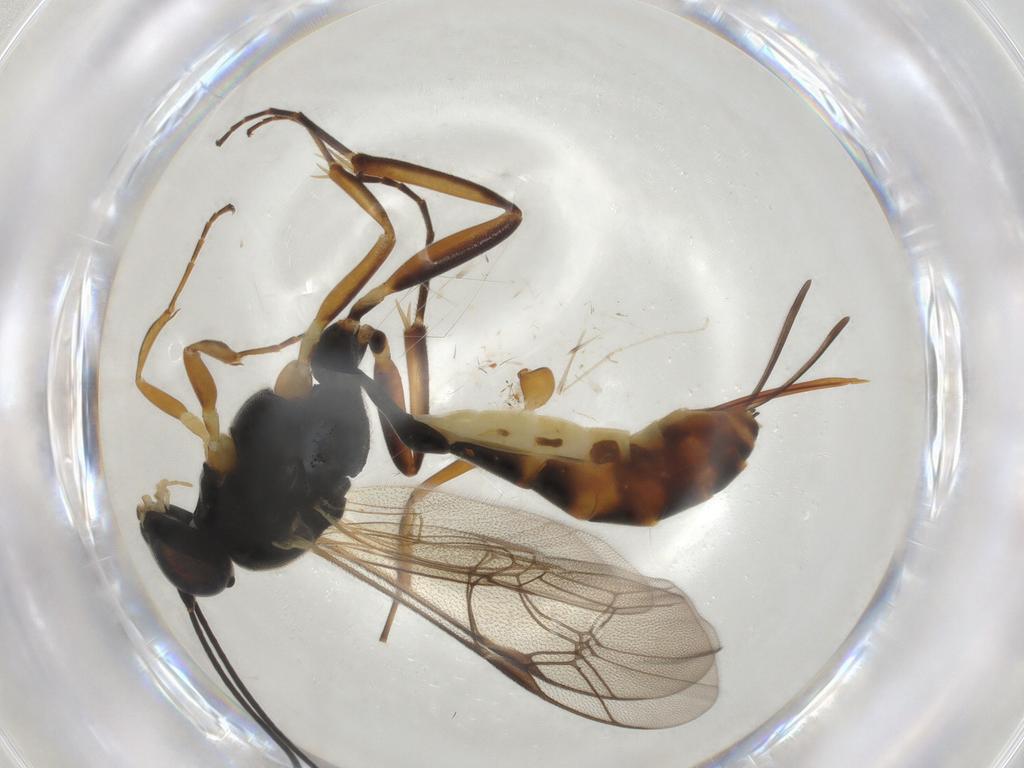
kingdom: Animalia
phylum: Arthropoda
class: Insecta
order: Hymenoptera
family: Ichneumonidae
